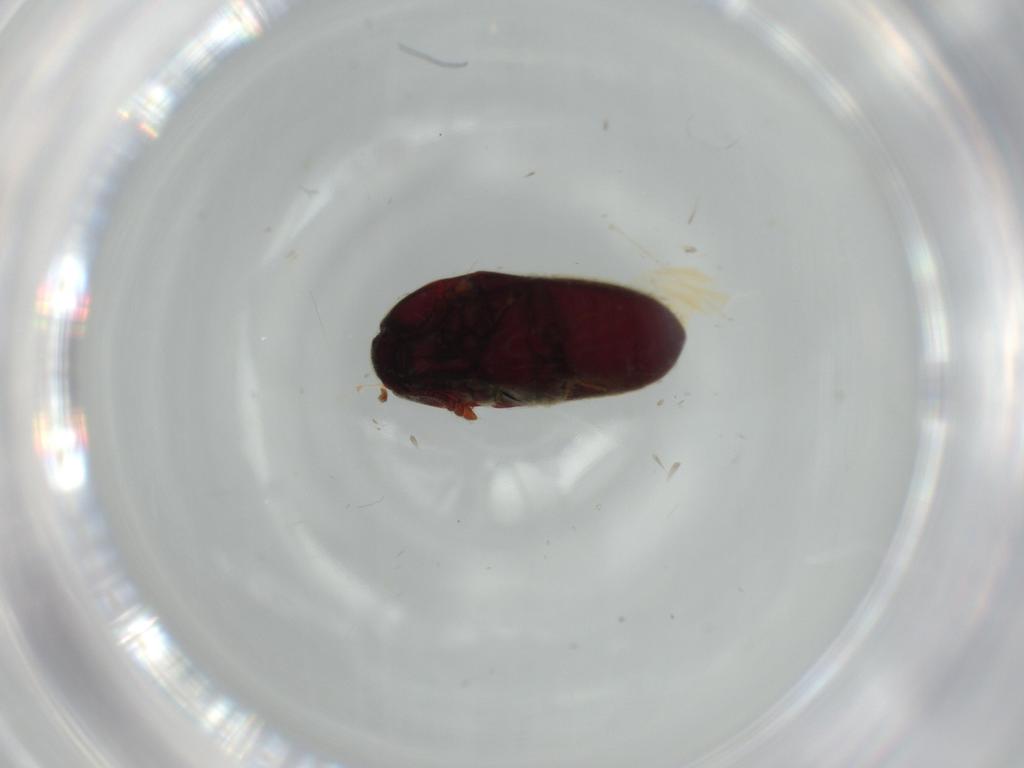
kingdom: Animalia
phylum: Arthropoda
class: Insecta
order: Coleoptera
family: Throscidae
